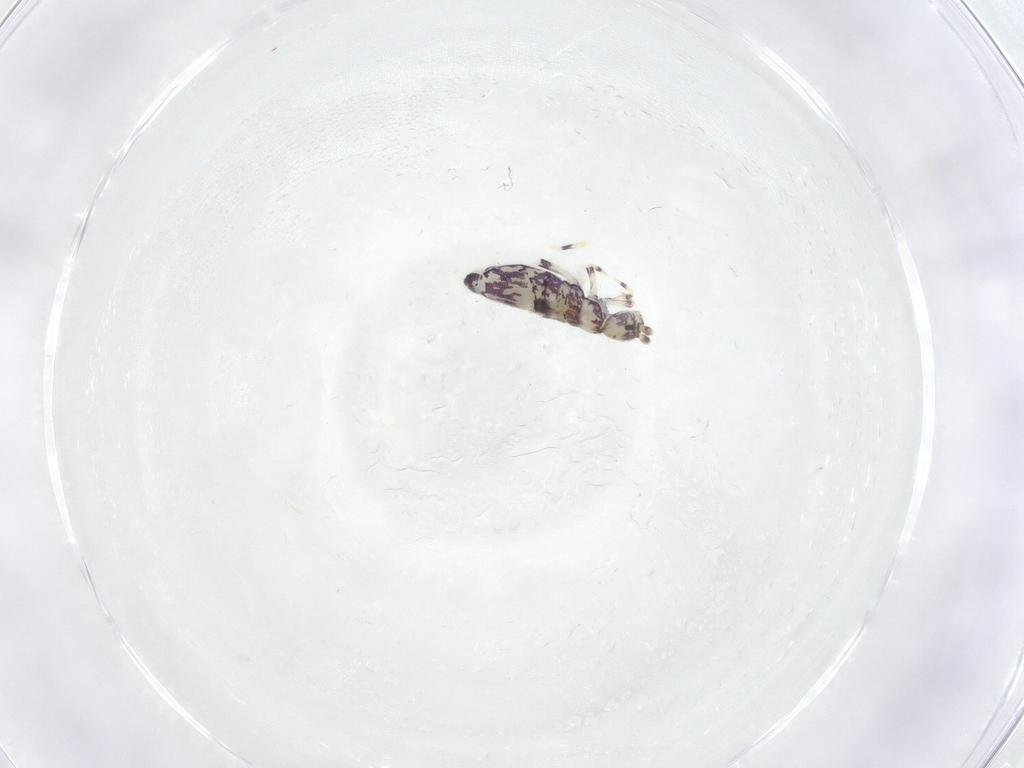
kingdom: Animalia
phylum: Arthropoda
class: Collembola
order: Entomobryomorpha
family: Entomobryidae
